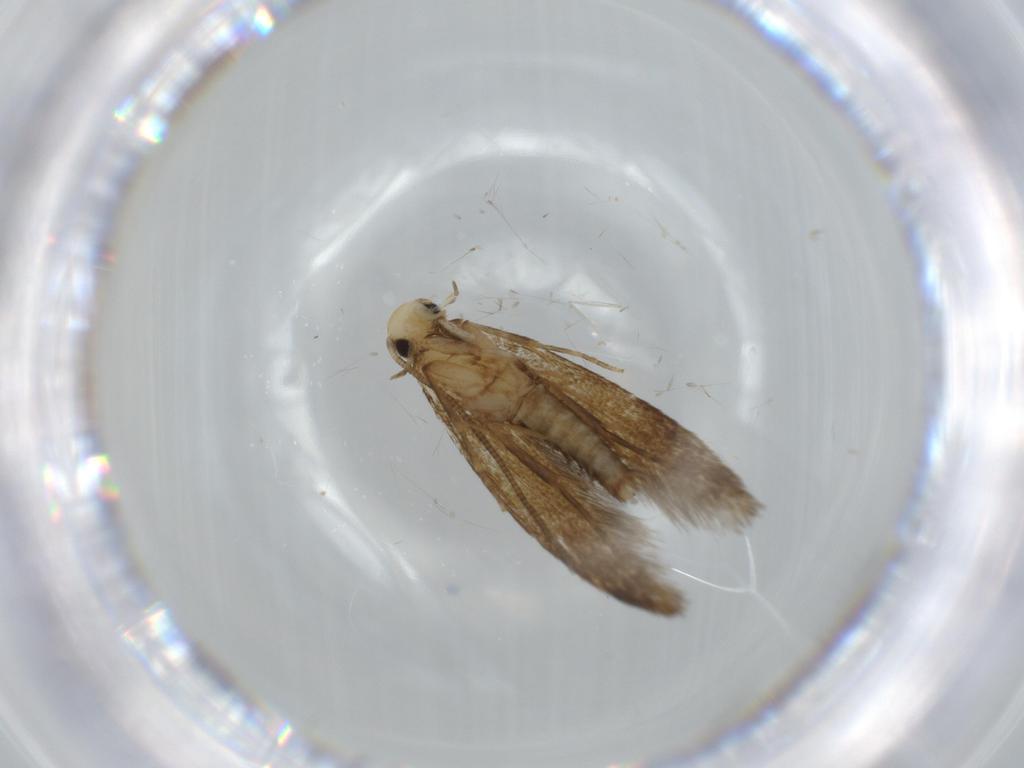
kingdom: Animalia
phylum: Arthropoda
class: Insecta
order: Lepidoptera
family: Tineidae
